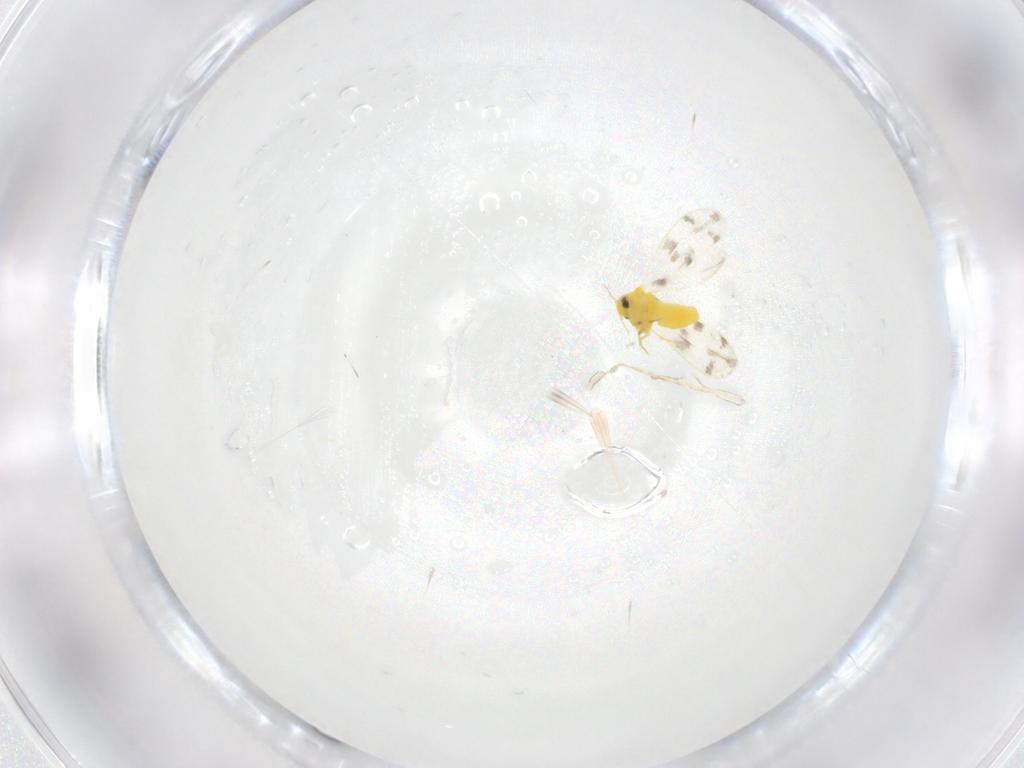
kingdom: Animalia
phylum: Arthropoda
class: Insecta
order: Hemiptera
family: Aleyrodidae
